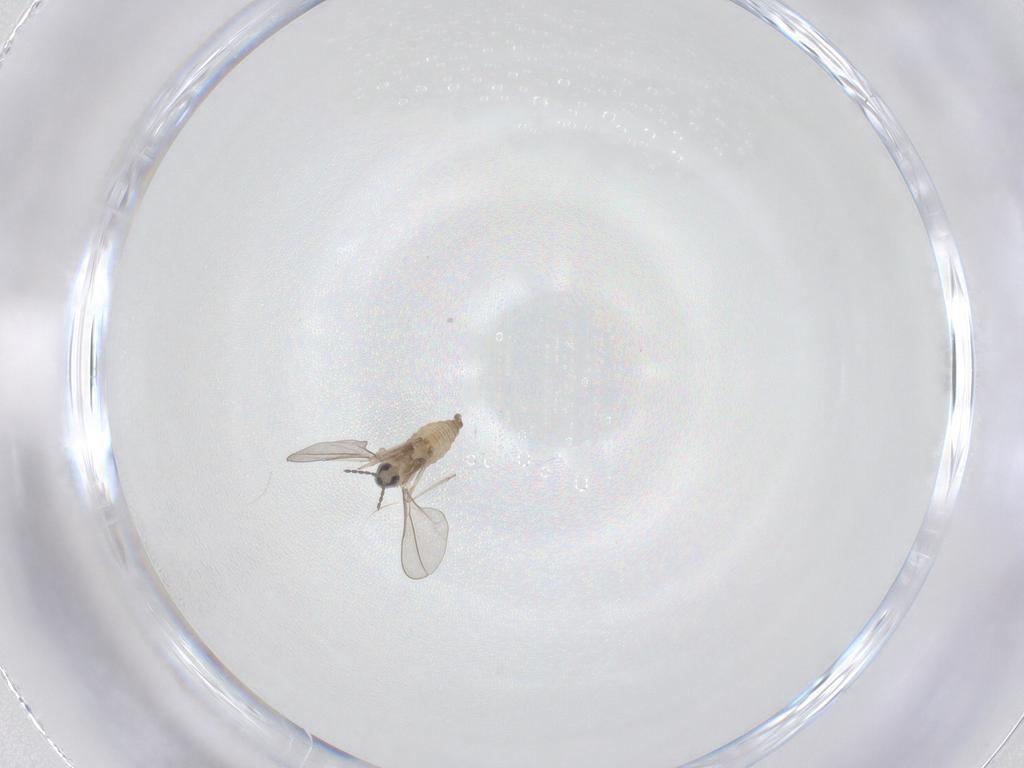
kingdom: Animalia
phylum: Arthropoda
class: Insecta
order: Diptera
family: Cecidomyiidae
